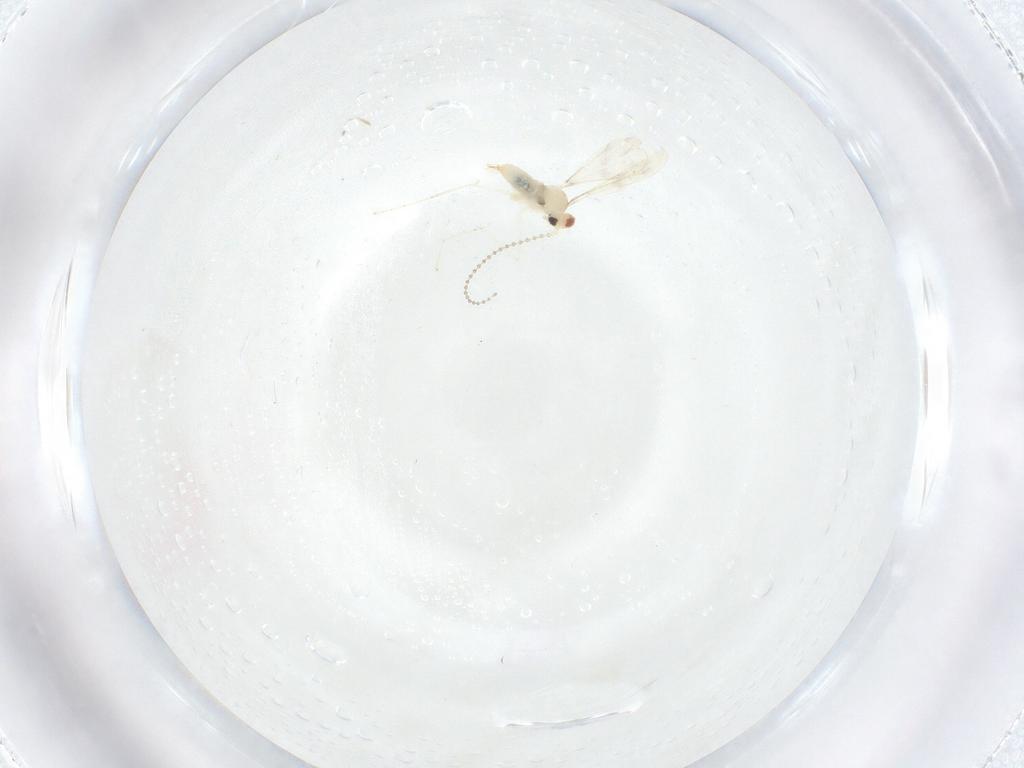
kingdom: Animalia
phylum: Arthropoda
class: Insecta
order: Diptera
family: Cecidomyiidae
